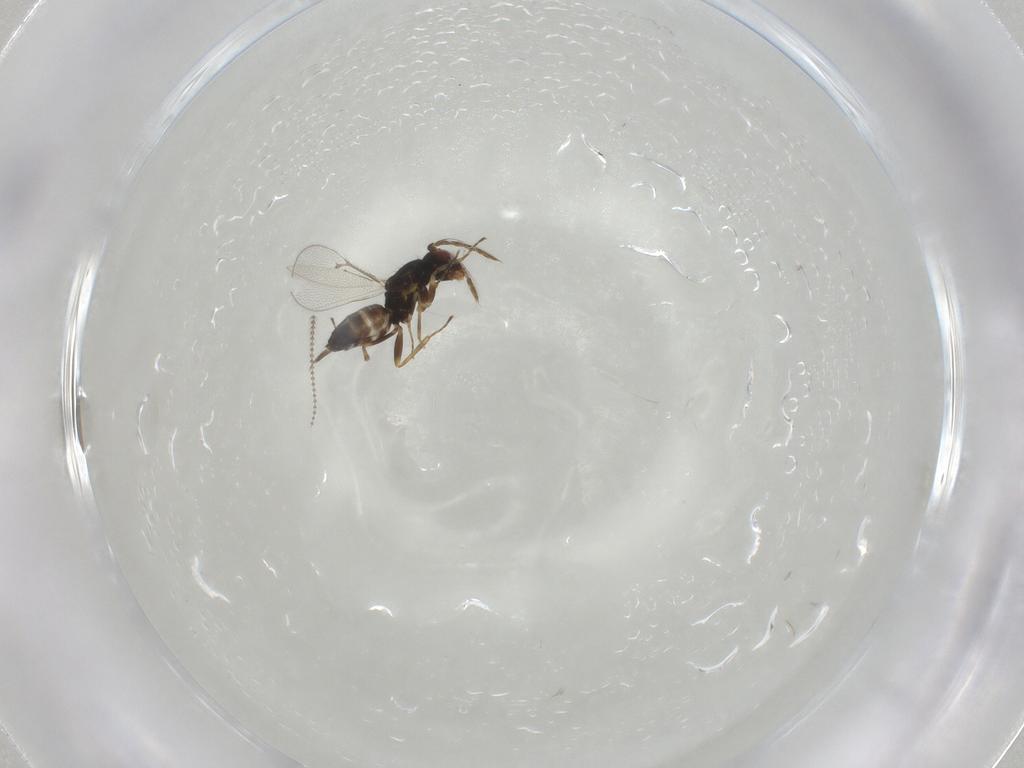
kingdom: Animalia
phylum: Arthropoda
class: Insecta
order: Hymenoptera
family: Eulophidae
